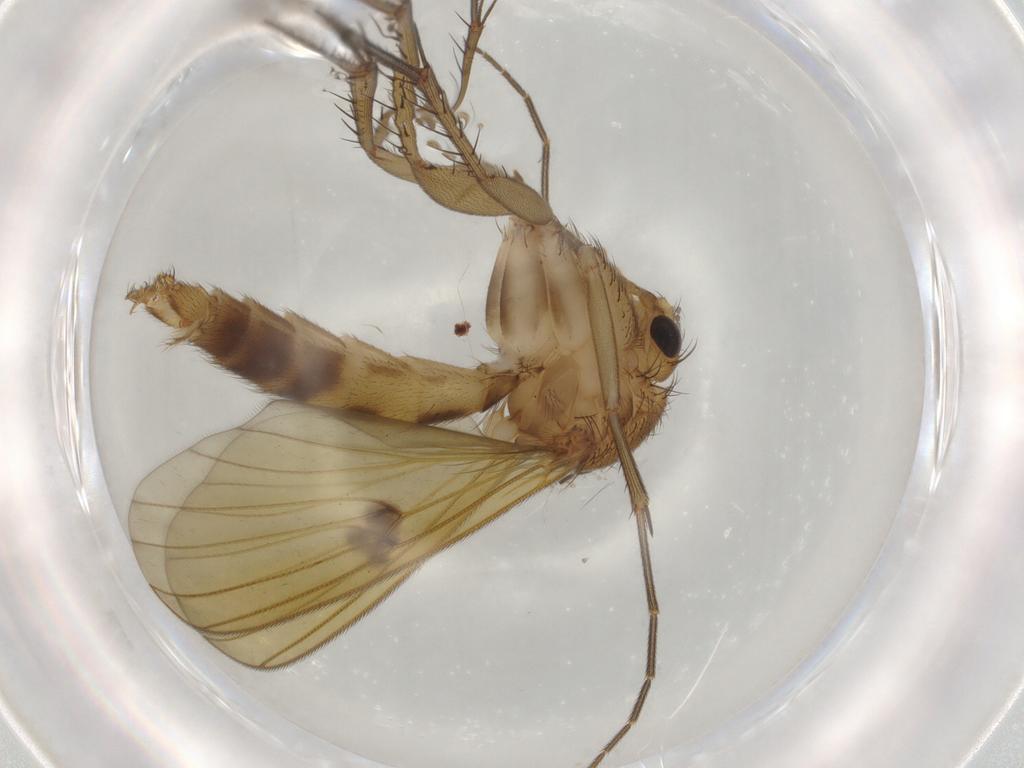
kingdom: Animalia
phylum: Arthropoda
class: Insecta
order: Diptera
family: Cecidomyiidae
